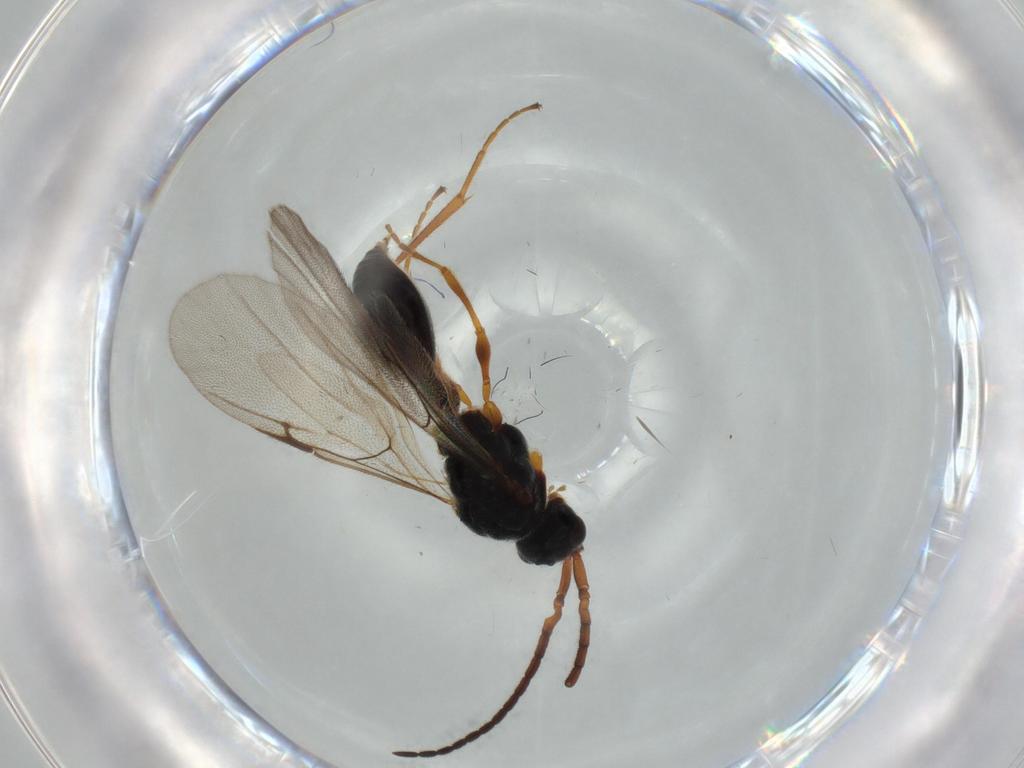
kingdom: Animalia
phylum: Arthropoda
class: Insecta
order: Hymenoptera
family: Braconidae
